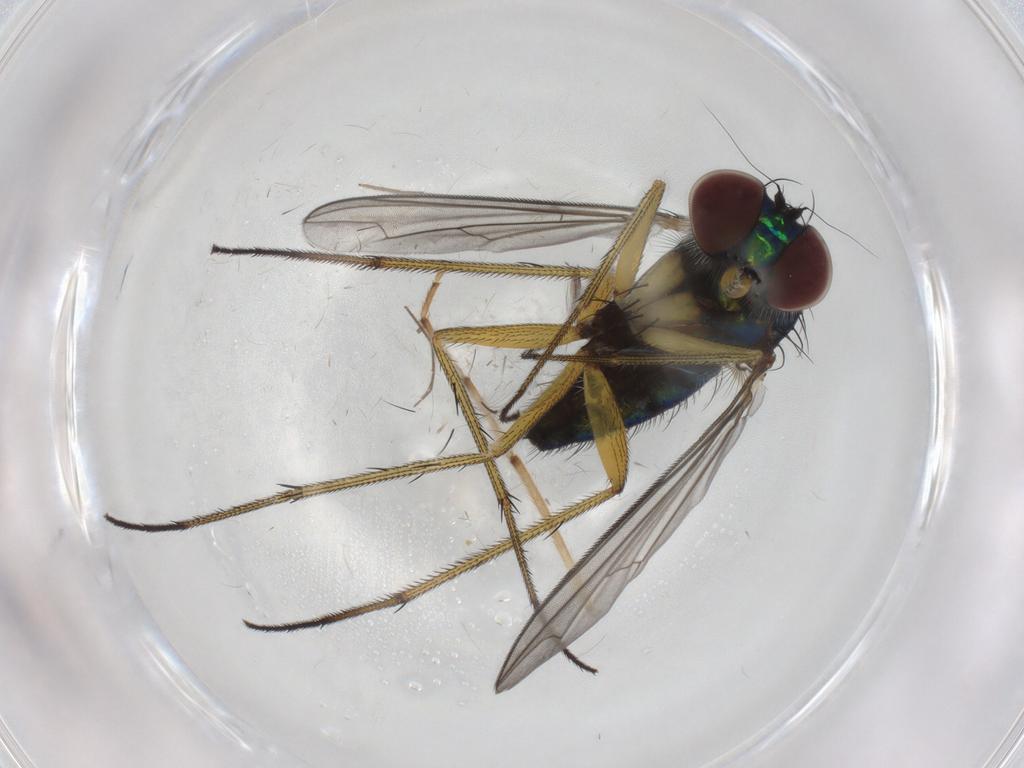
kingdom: Animalia
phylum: Arthropoda
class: Insecta
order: Diptera
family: Dolichopodidae
